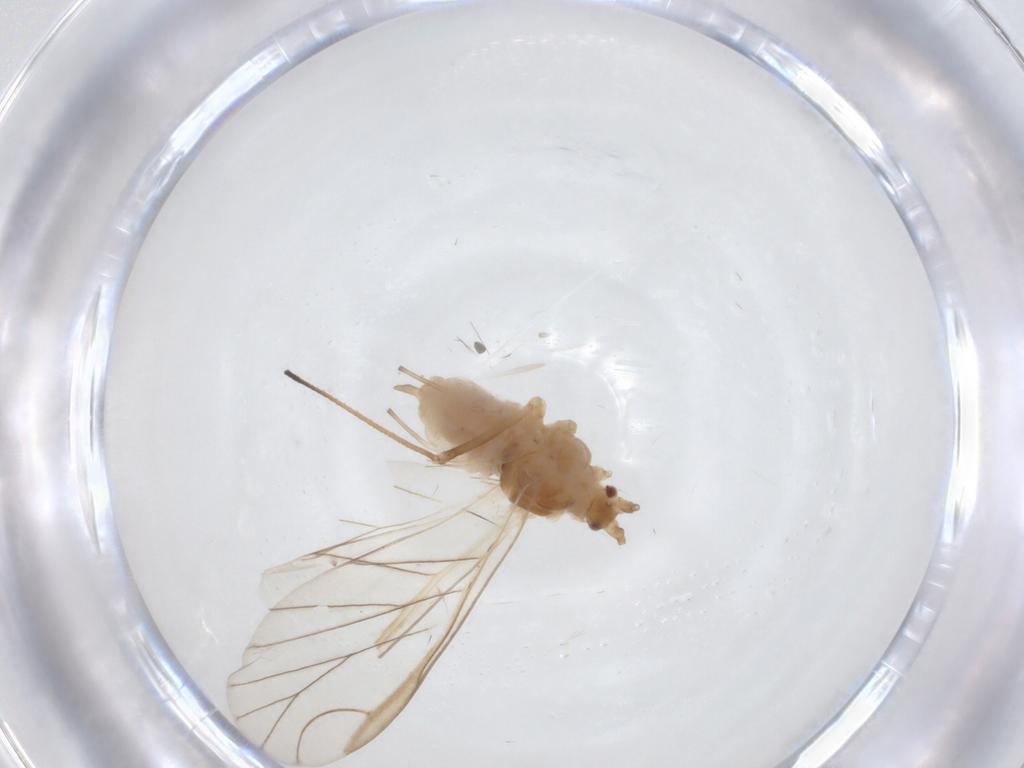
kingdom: Animalia
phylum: Arthropoda
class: Insecta
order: Hemiptera
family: Aphididae
